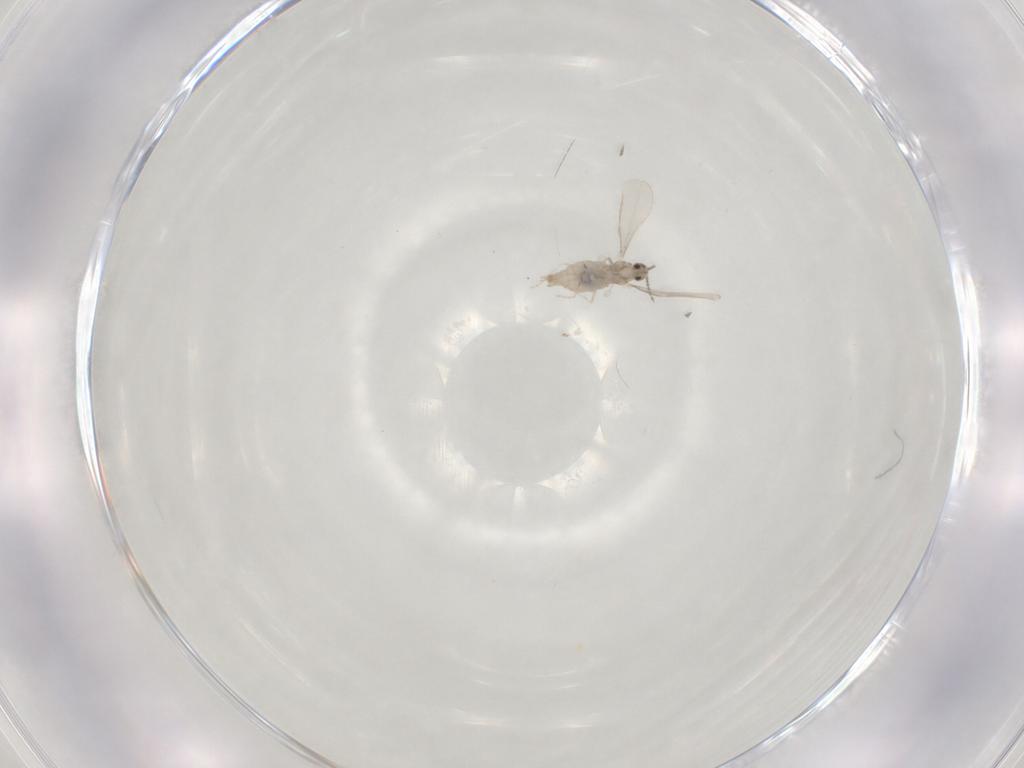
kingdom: Animalia
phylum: Arthropoda
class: Insecta
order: Diptera
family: Cecidomyiidae
